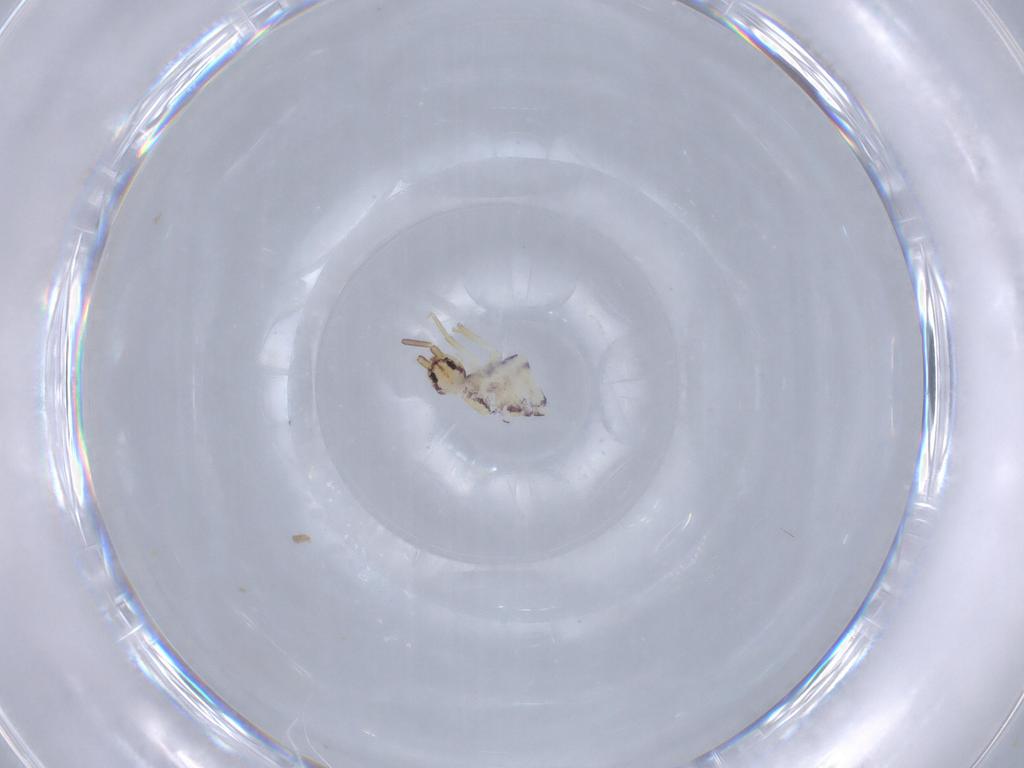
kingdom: Animalia
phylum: Arthropoda
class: Collembola
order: Entomobryomorpha
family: Entomobryidae
